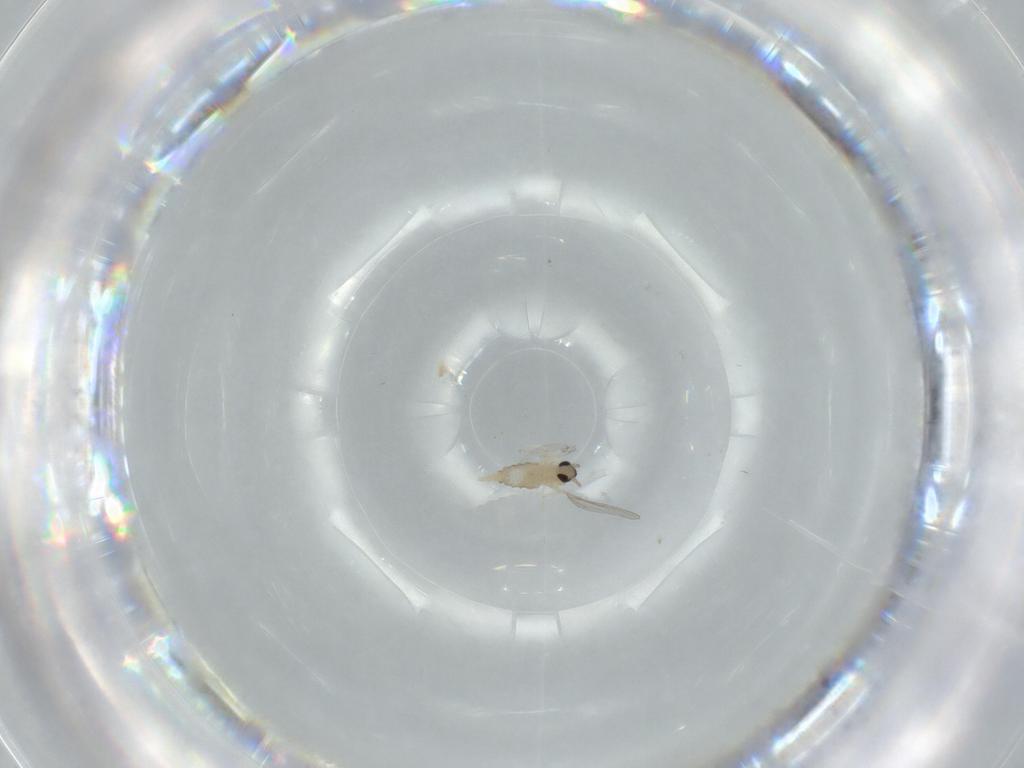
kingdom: Animalia
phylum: Arthropoda
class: Insecta
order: Diptera
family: Cecidomyiidae
